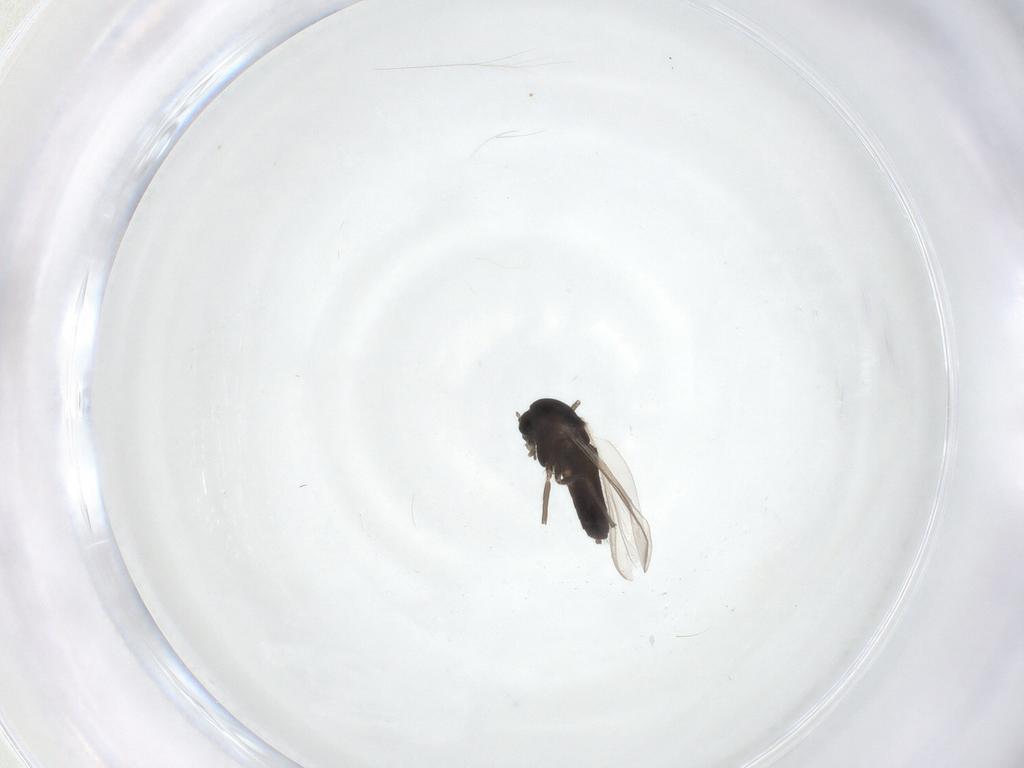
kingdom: Animalia
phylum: Arthropoda
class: Insecta
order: Diptera
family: Chironomidae
